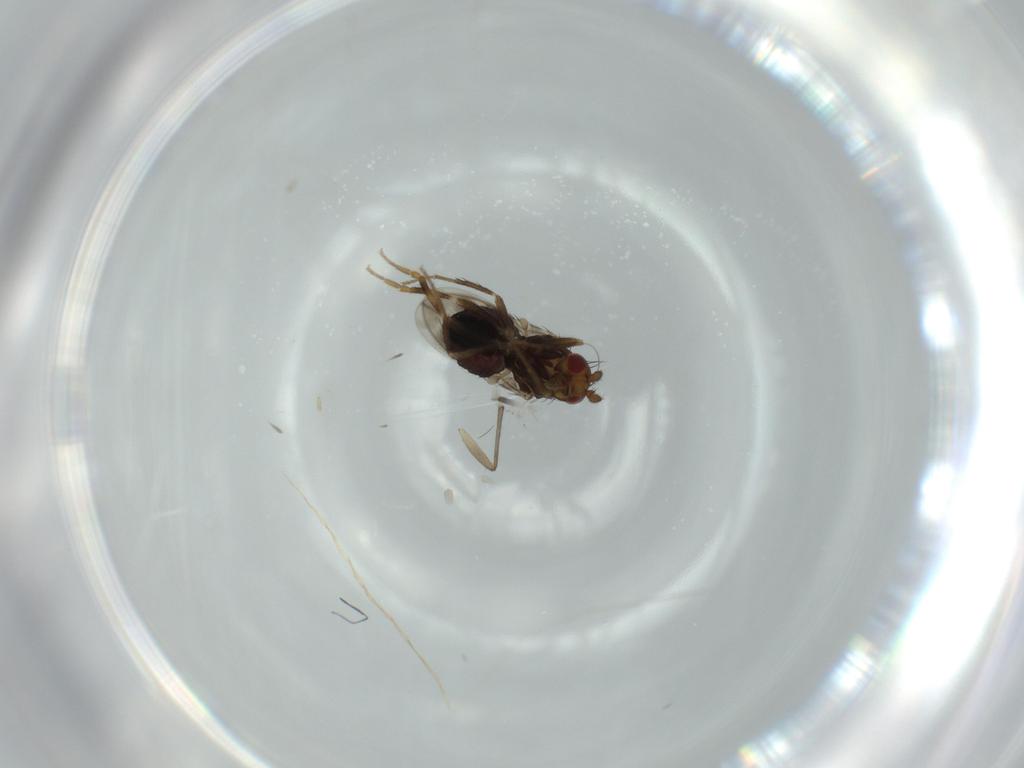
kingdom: Animalia
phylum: Arthropoda
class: Insecta
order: Diptera
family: Sphaeroceridae
